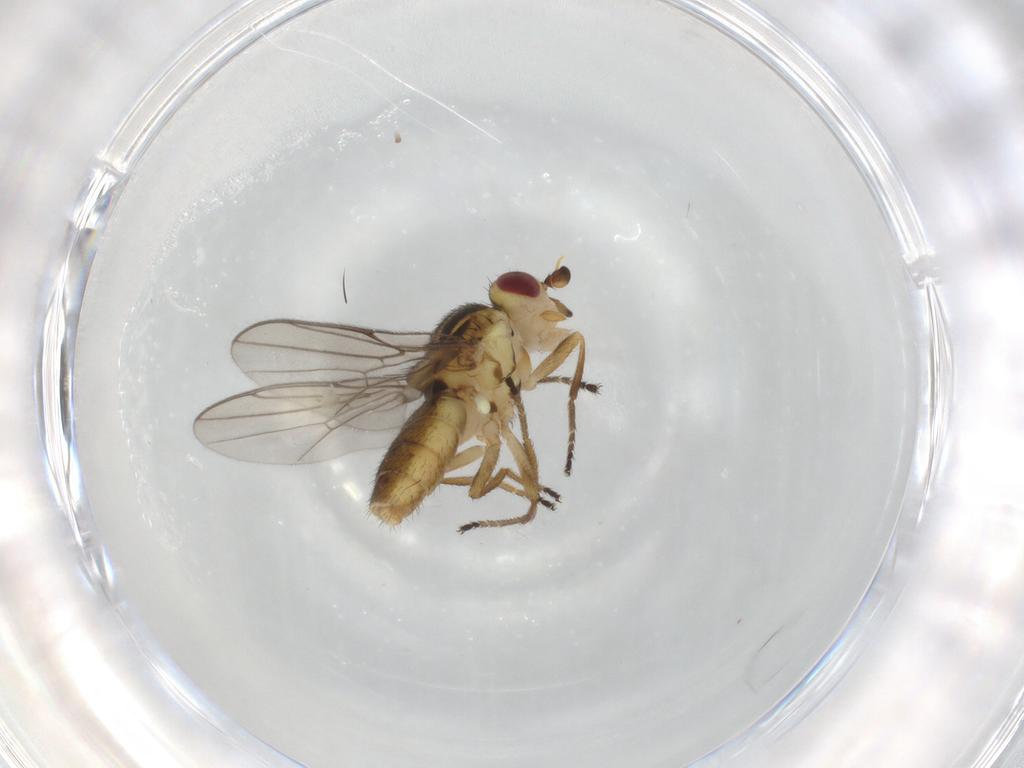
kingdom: Animalia
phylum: Arthropoda
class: Insecta
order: Diptera
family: Chloropidae
